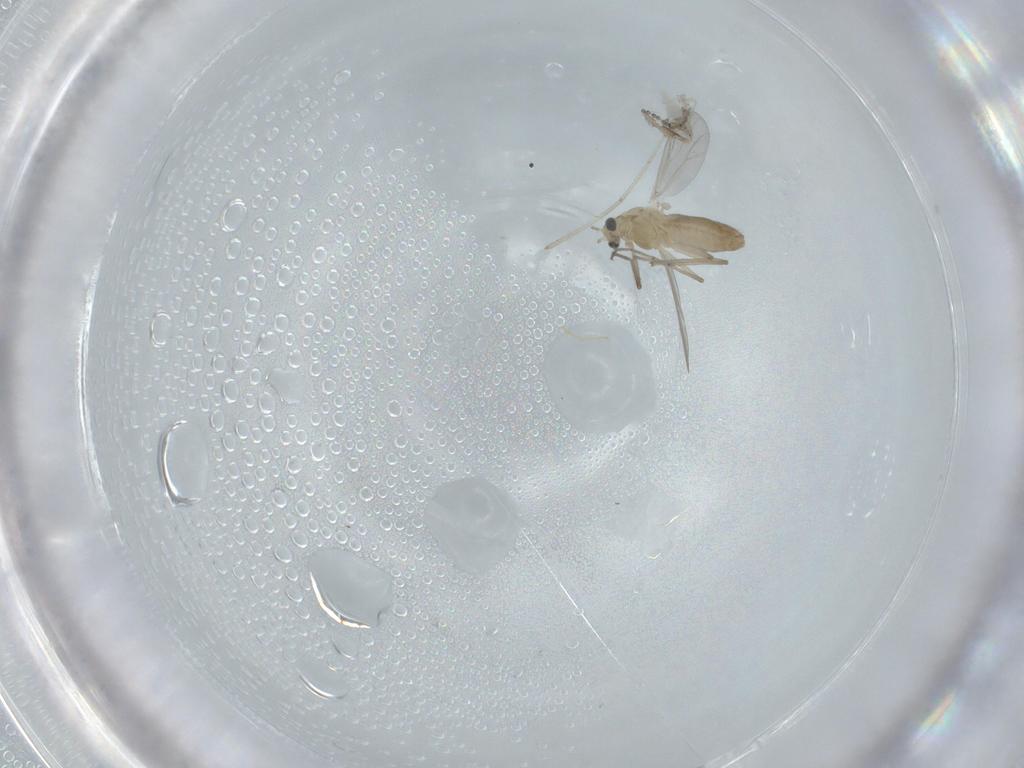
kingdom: Animalia
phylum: Arthropoda
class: Insecta
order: Diptera
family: Chironomidae
